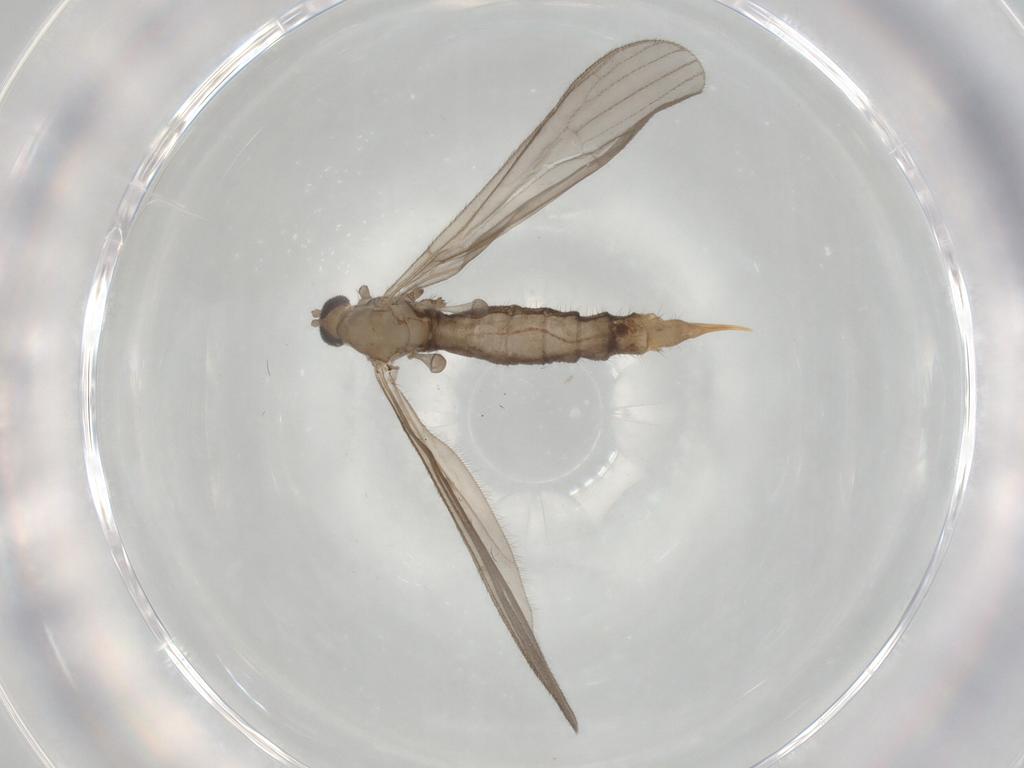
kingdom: Animalia
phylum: Arthropoda
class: Insecta
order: Diptera
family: Limoniidae
